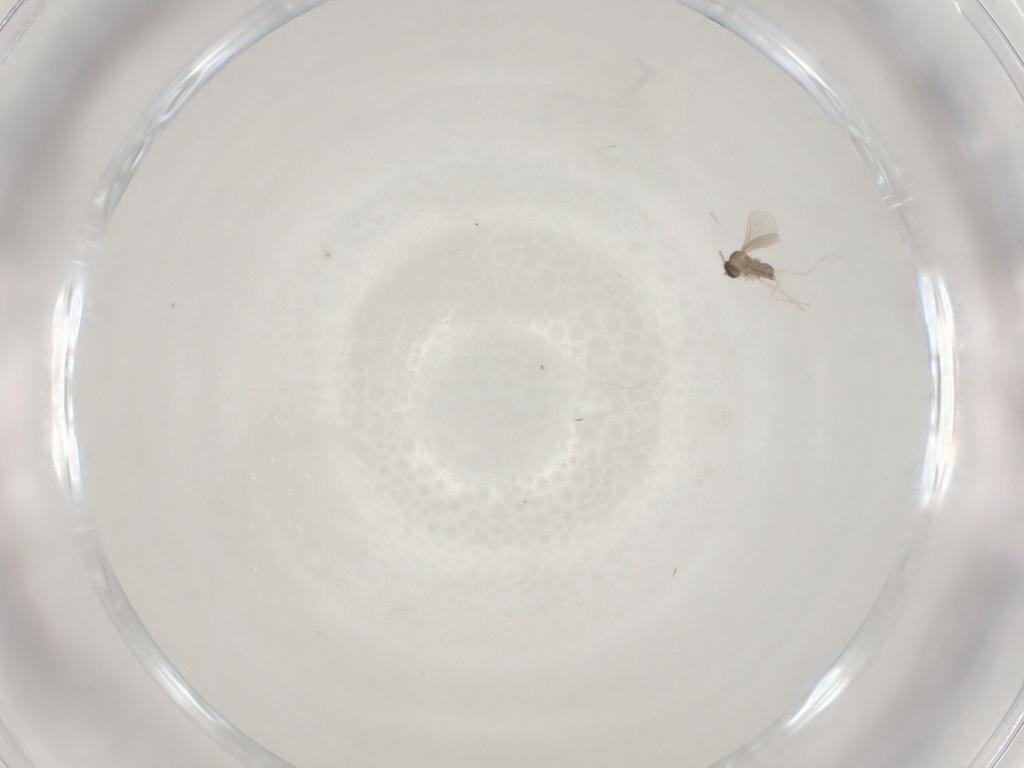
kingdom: Animalia
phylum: Arthropoda
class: Insecta
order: Diptera
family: Cecidomyiidae
